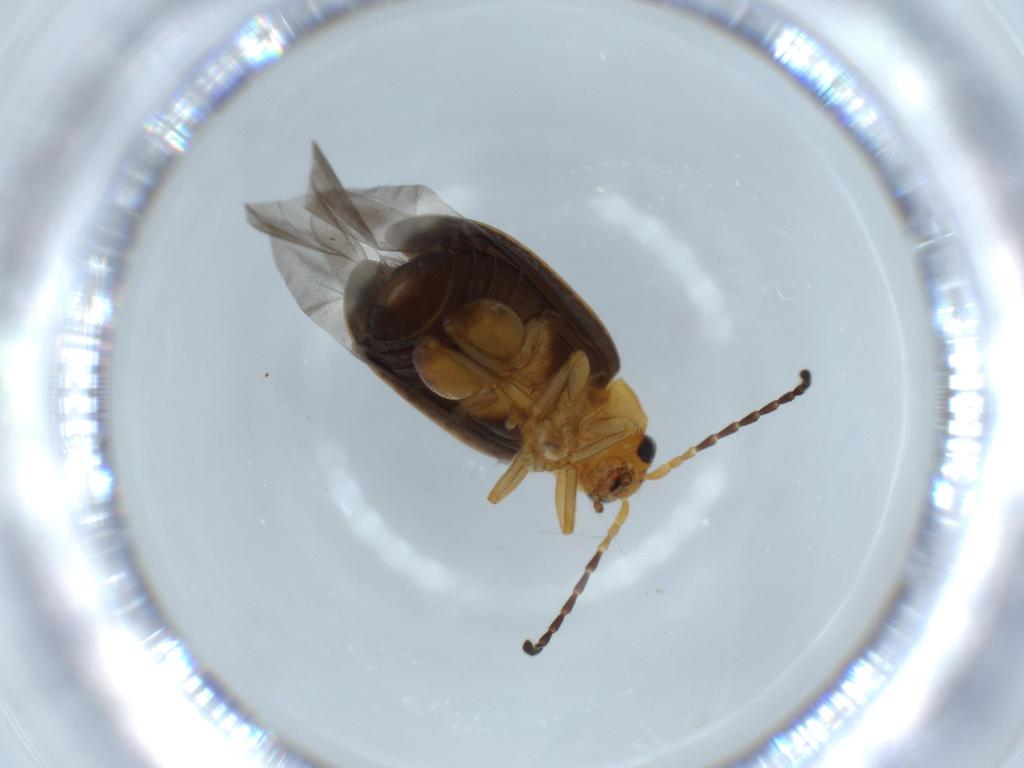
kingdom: Animalia
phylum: Arthropoda
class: Insecta
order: Coleoptera
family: Chrysomelidae
